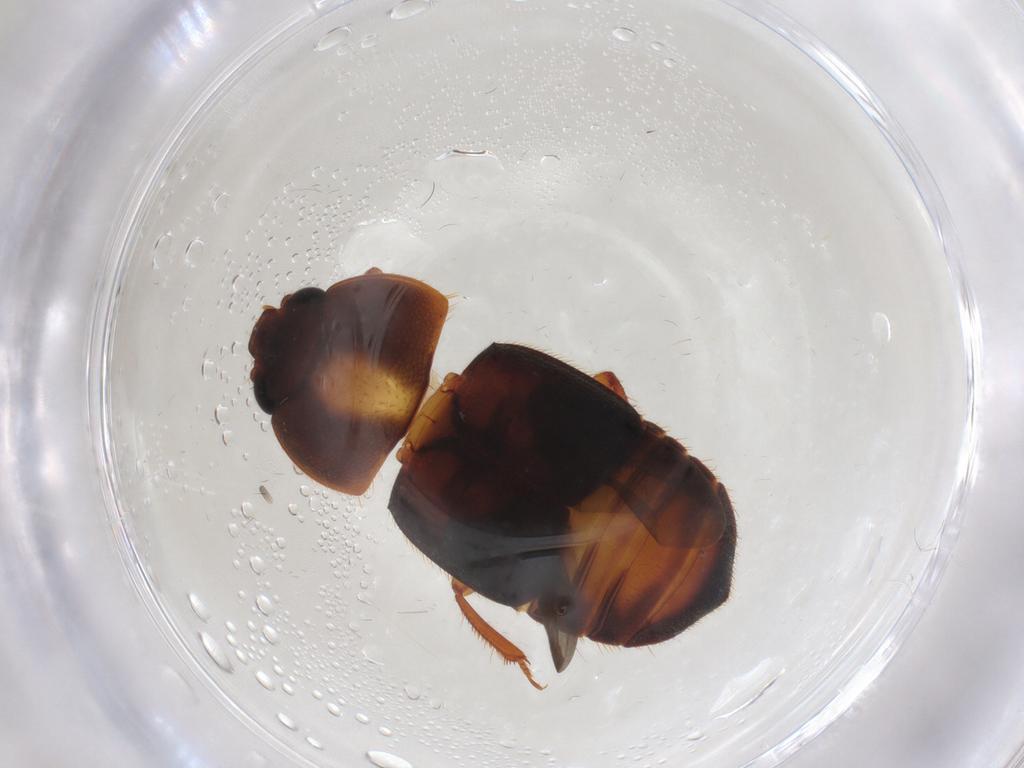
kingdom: Animalia
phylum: Arthropoda
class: Insecta
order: Coleoptera
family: Nitidulidae
